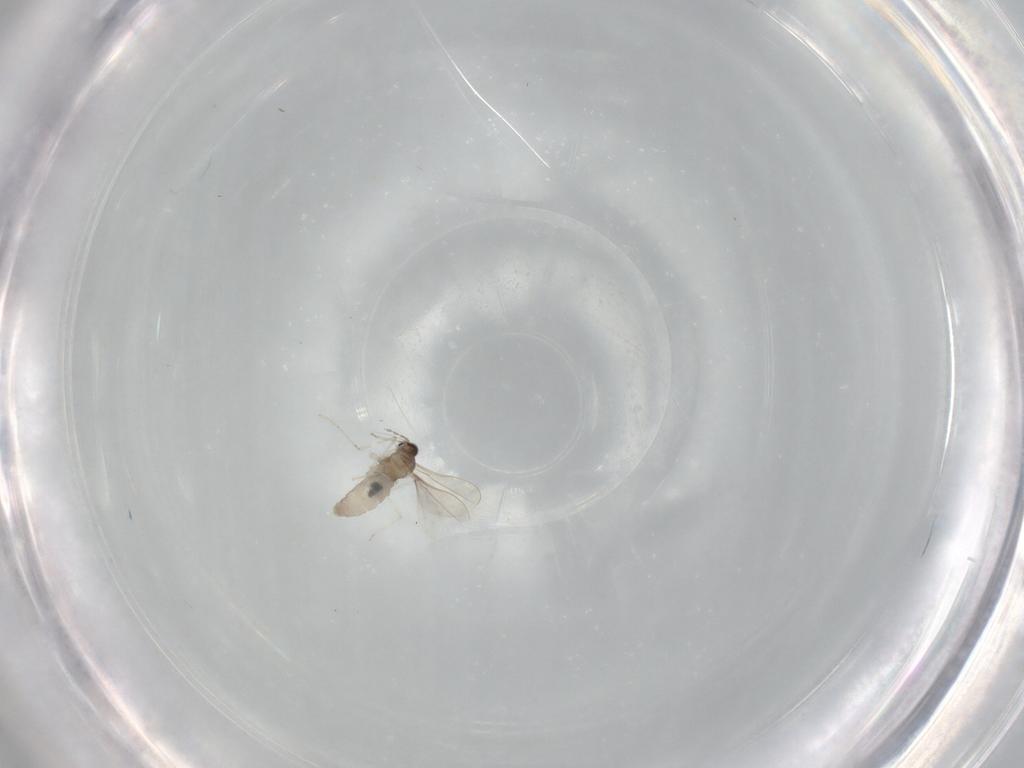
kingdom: Animalia
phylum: Arthropoda
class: Insecta
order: Diptera
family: Cecidomyiidae
